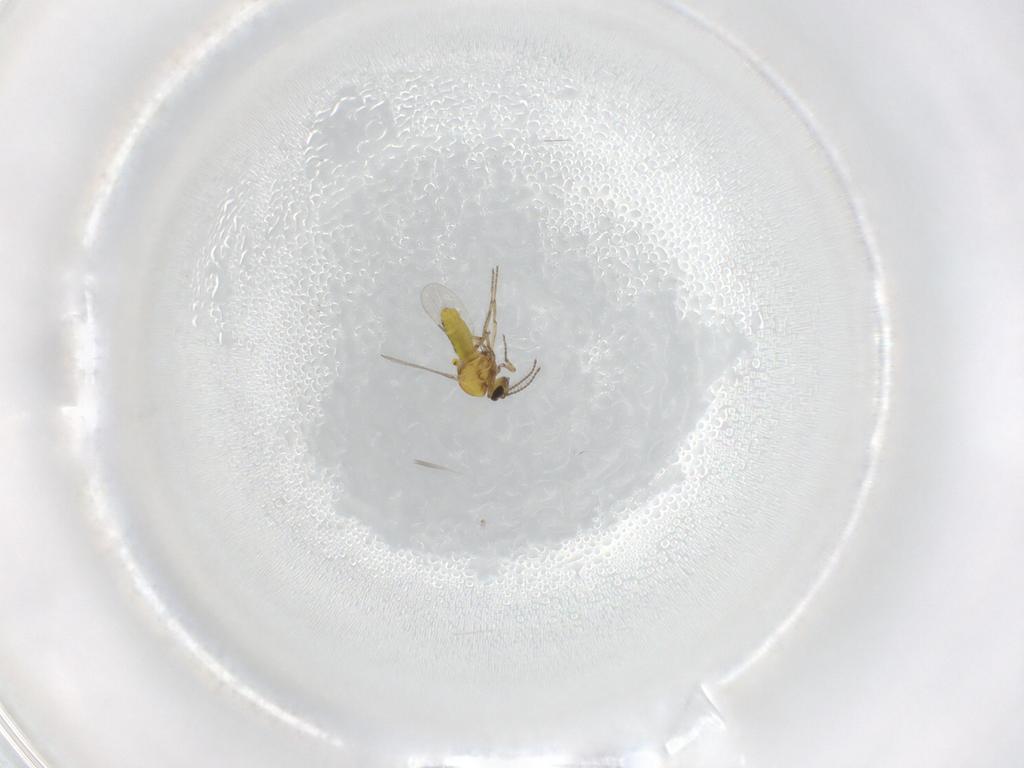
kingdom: Animalia
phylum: Arthropoda
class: Insecta
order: Diptera
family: Ceratopogonidae
